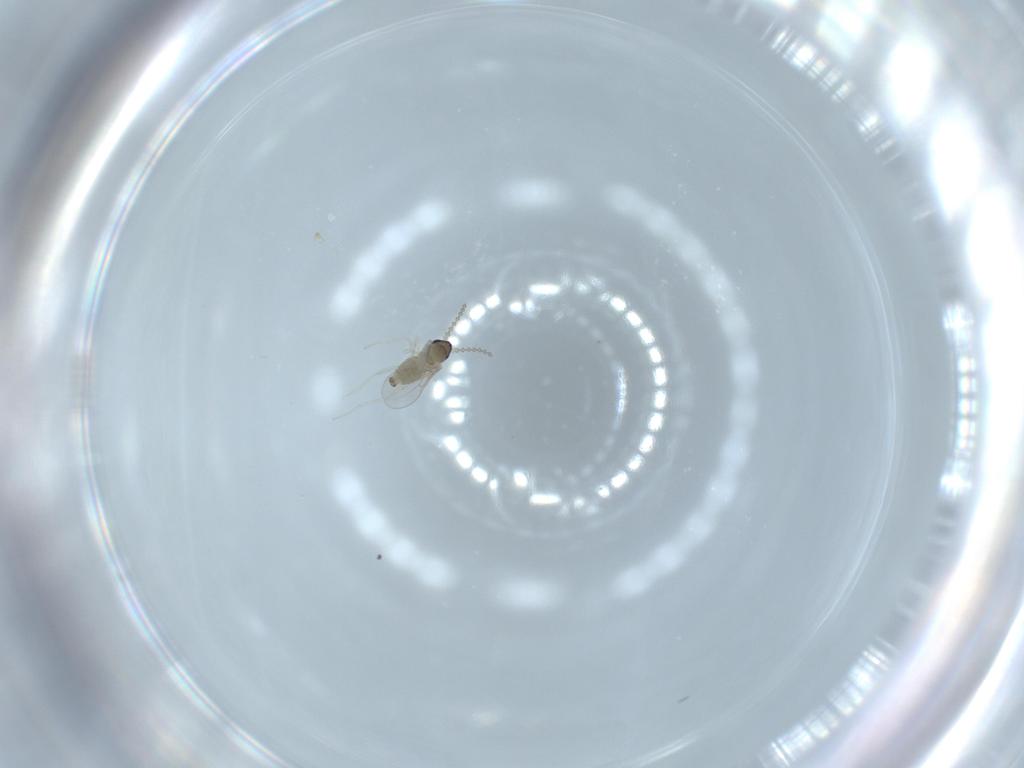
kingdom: Animalia
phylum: Arthropoda
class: Insecta
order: Diptera
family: Cecidomyiidae
